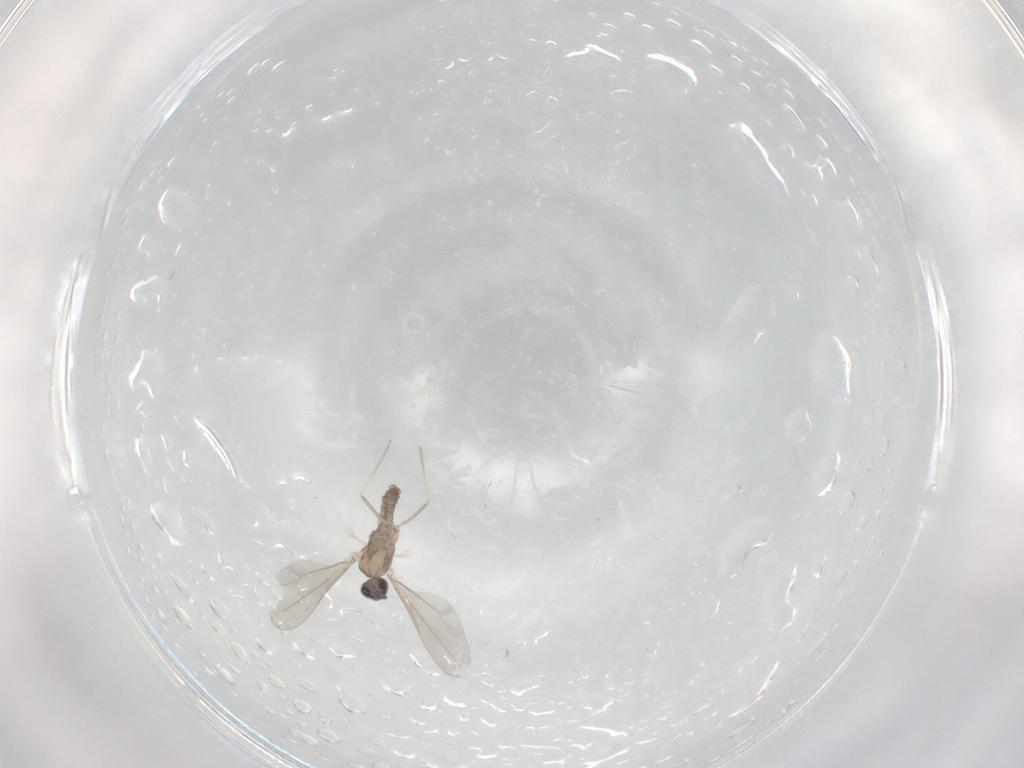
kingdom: Animalia
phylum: Arthropoda
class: Insecta
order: Diptera
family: Cecidomyiidae
